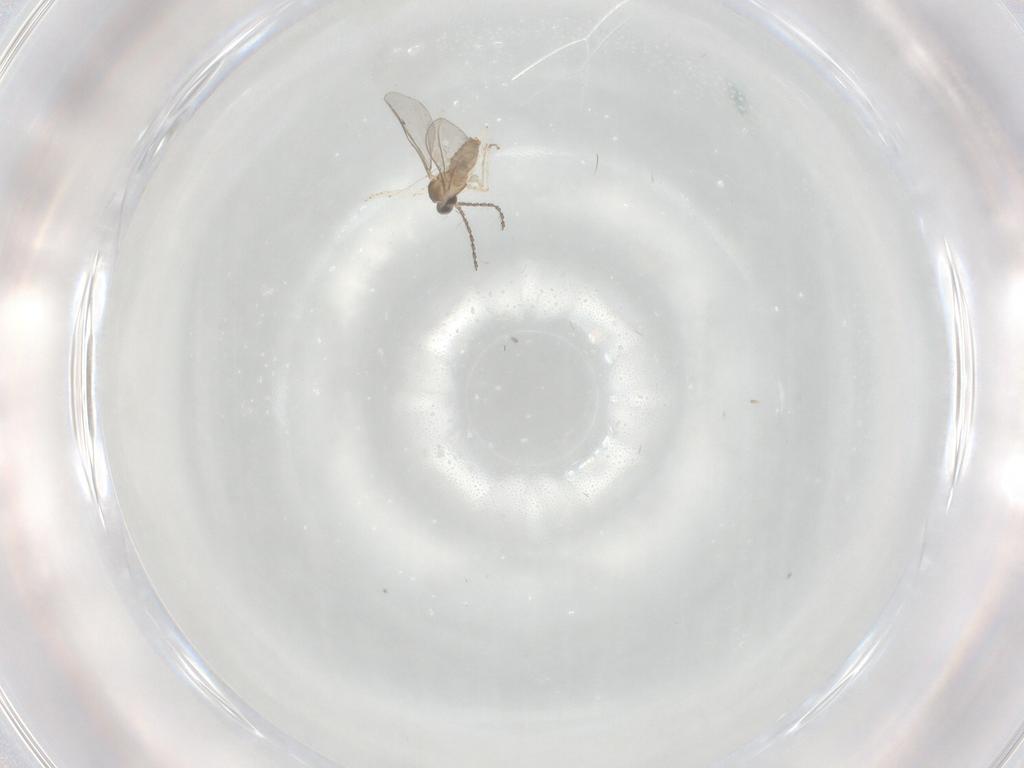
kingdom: Animalia
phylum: Arthropoda
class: Insecta
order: Diptera
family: Cecidomyiidae
